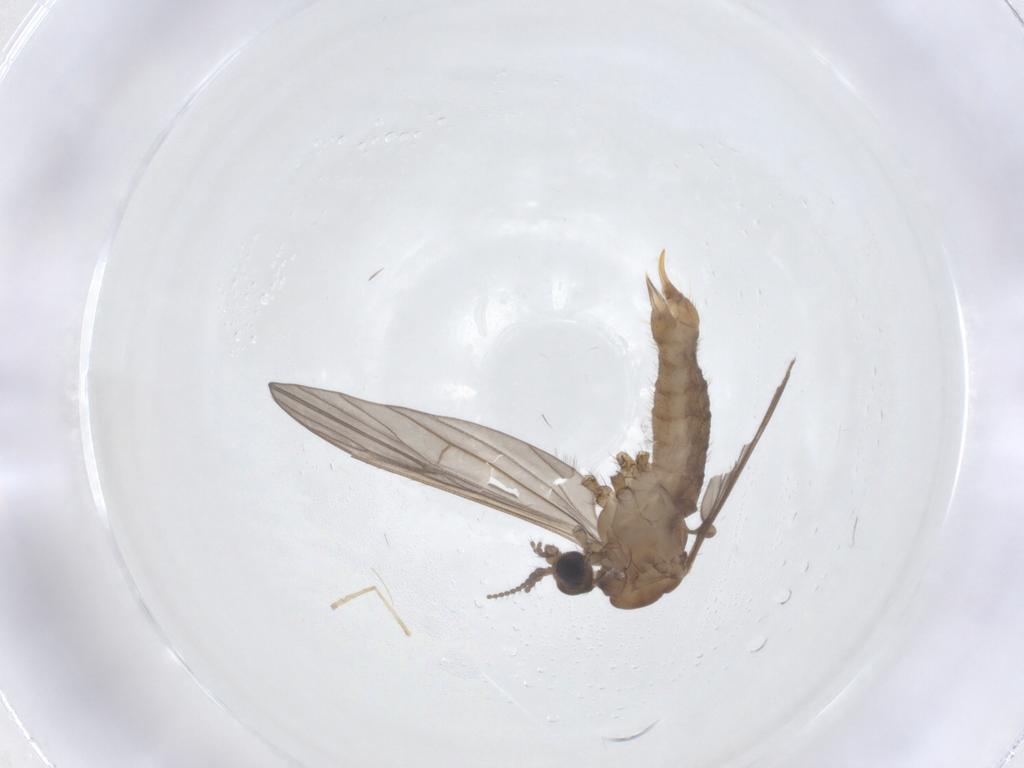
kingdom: Animalia
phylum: Arthropoda
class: Insecta
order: Diptera
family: Limoniidae
